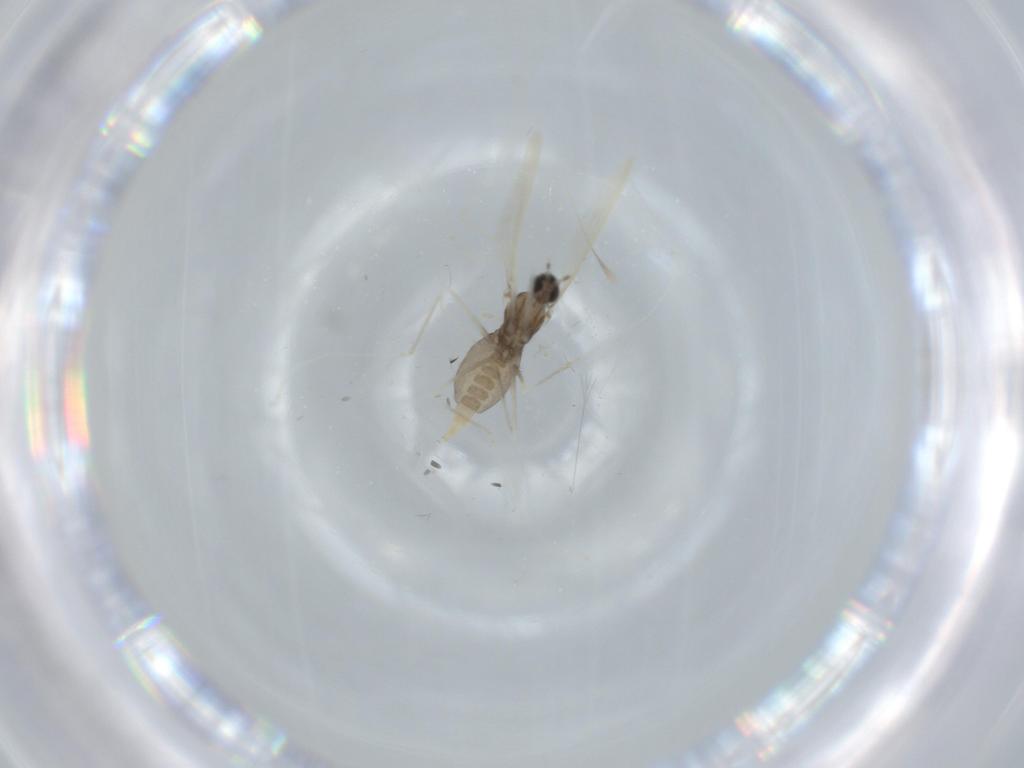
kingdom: Animalia
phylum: Arthropoda
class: Insecta
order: Diptera
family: Cecidomyiidae
